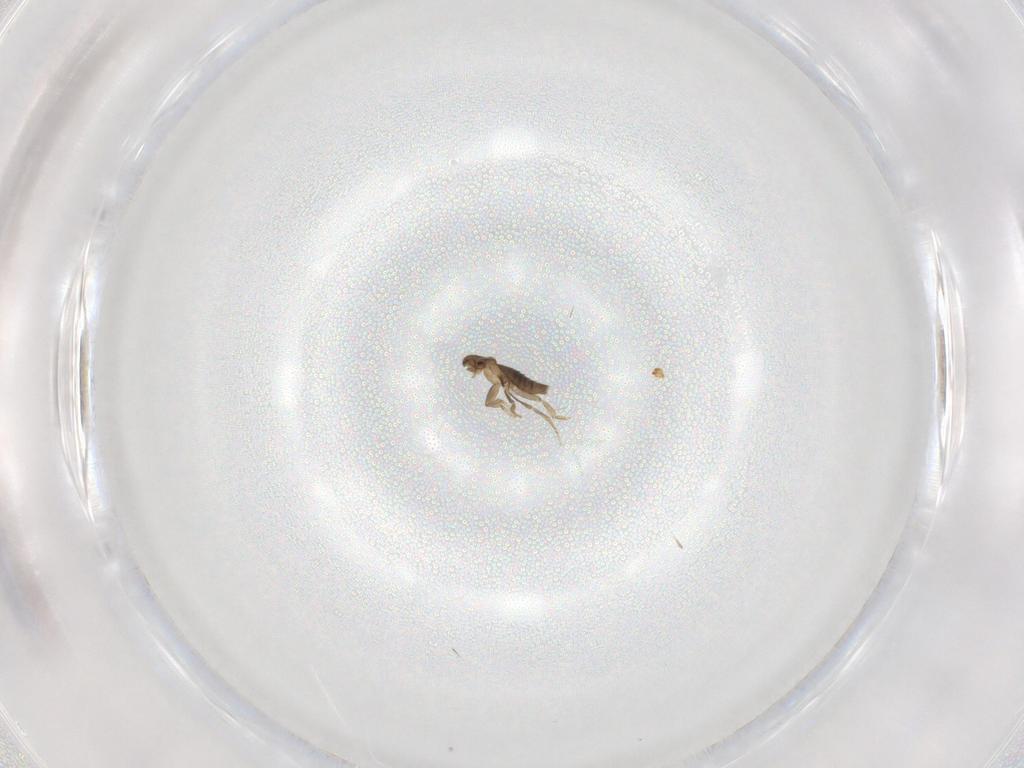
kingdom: Animalia
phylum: Arthropoda
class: Insecta
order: Diptera
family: Cecidomyiidae
